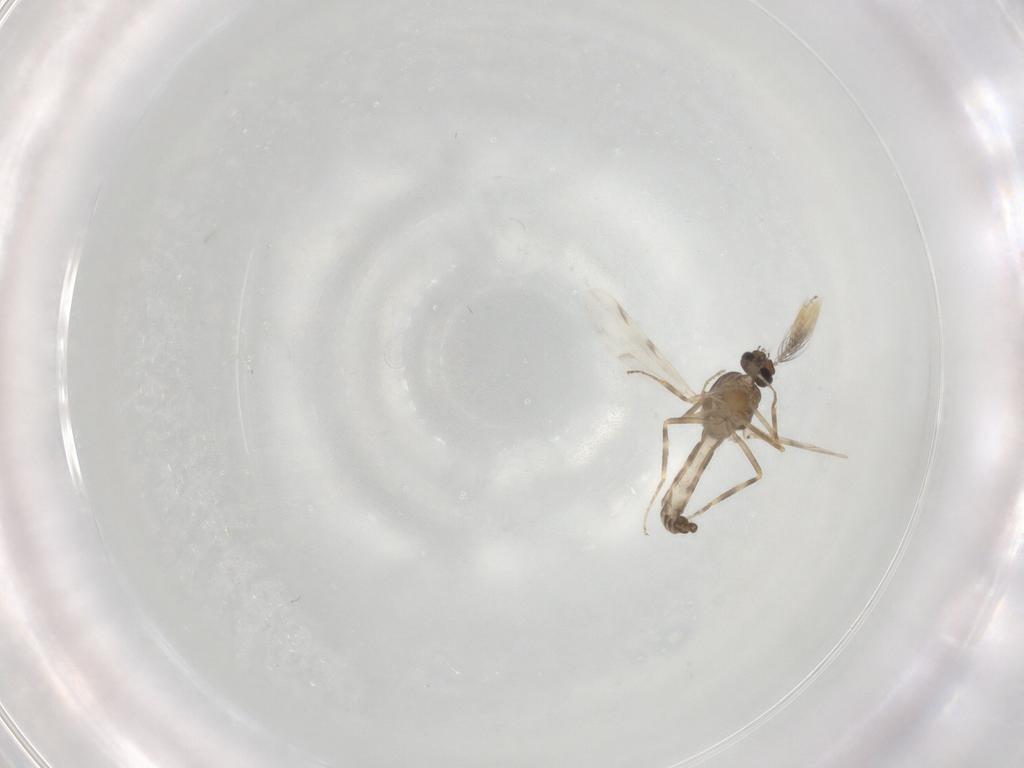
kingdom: Animalia
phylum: Arthropoda
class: Insecta
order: Diptera
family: Ceratopogonidae
